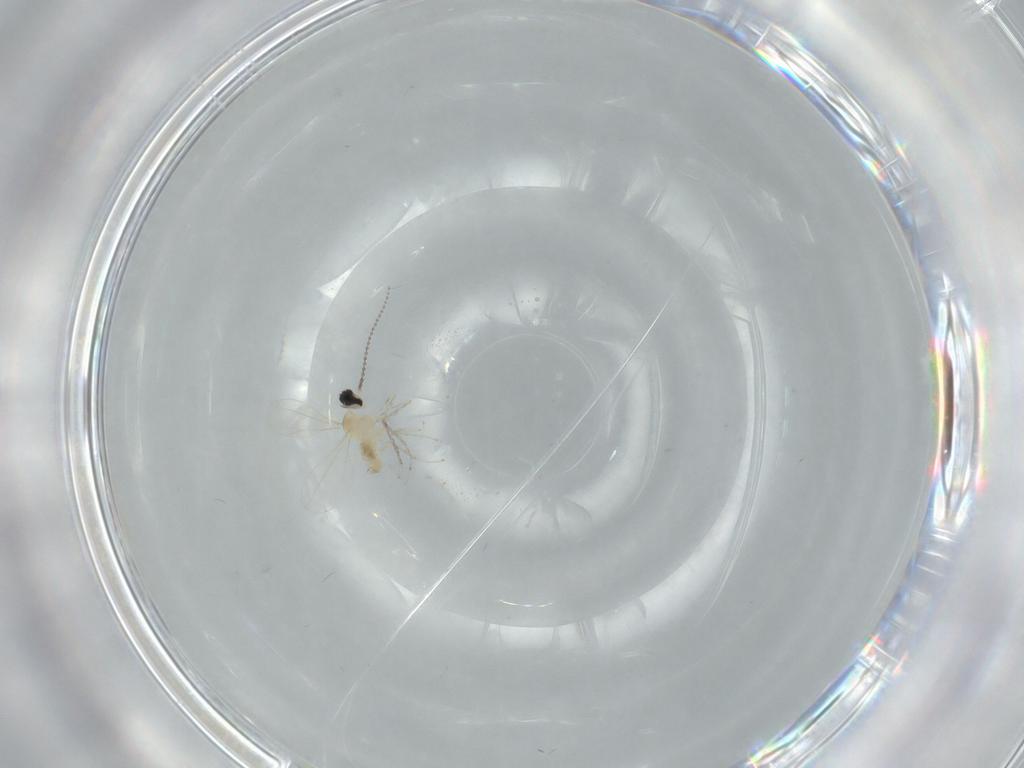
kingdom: Animalia
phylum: Arthropoda
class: Insecta
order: Diptera
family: Cecidomyiidae
